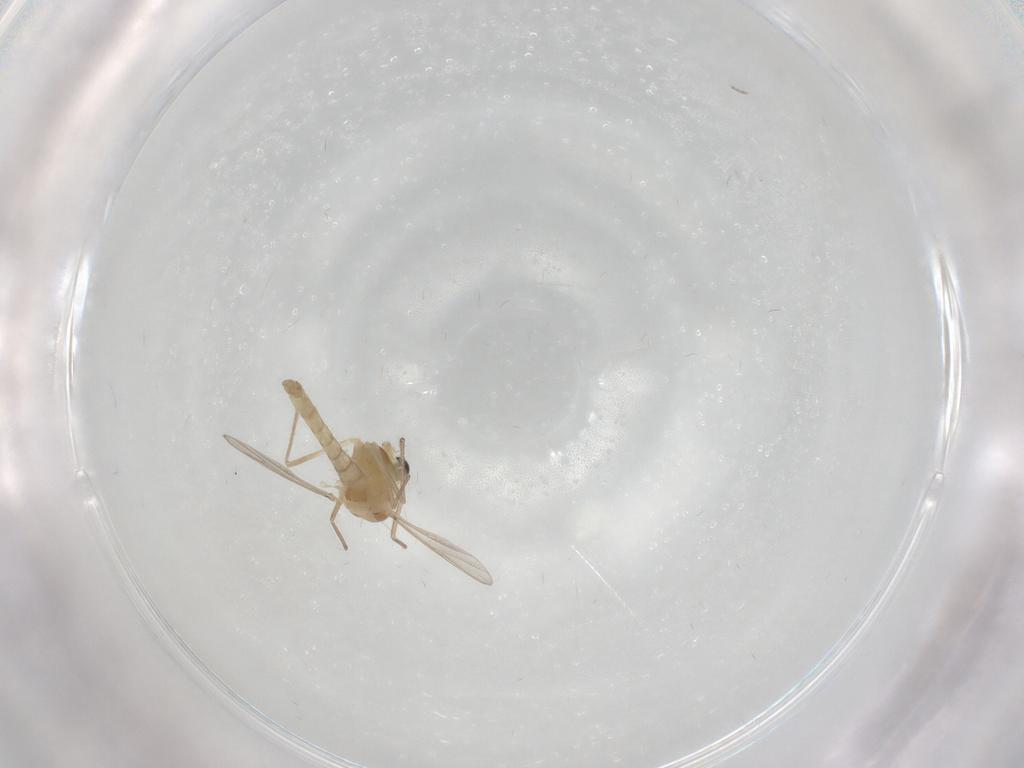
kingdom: Animalia
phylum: Arthropoda
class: Insecta
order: Diptera
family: Chironomidae
